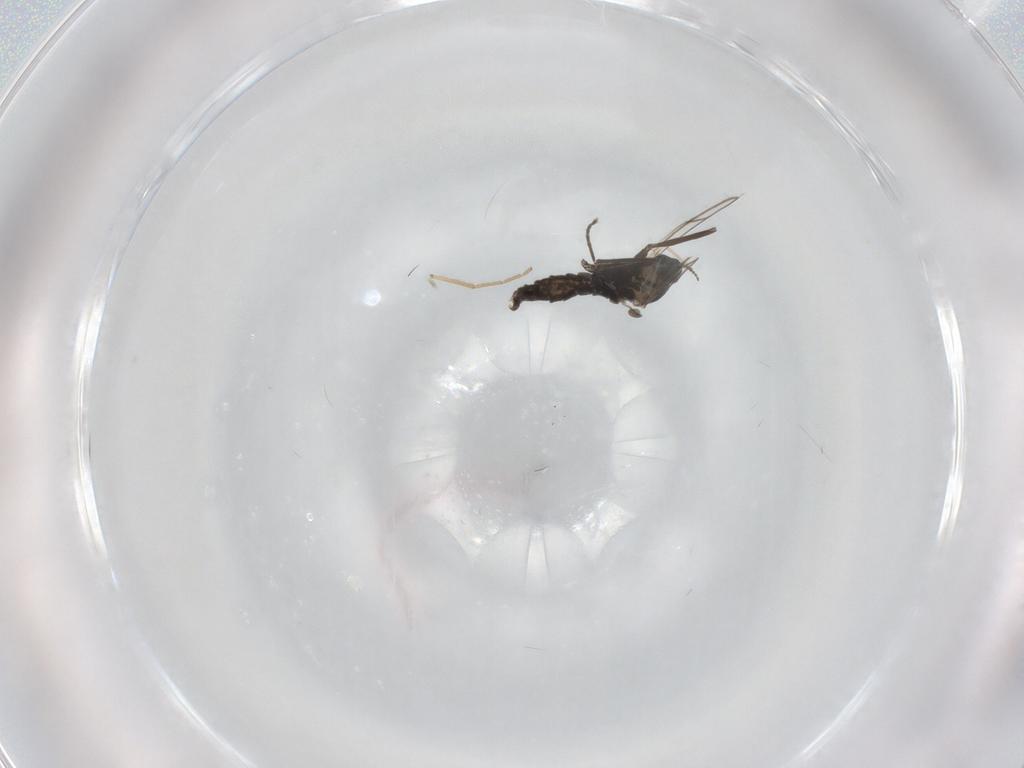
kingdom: Animalia
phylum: Arthropoda
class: Insecta
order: Diptera
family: Cecidomyiidae
